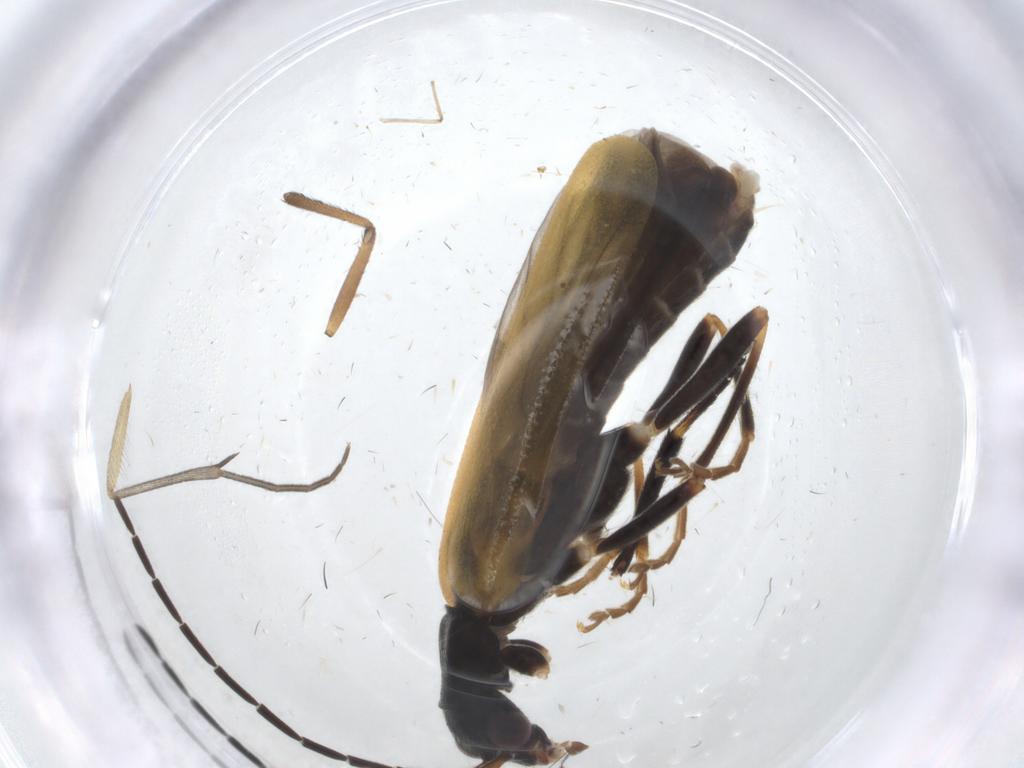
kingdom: Animalia
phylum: Arthropoda
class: Insecta
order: Coleoptera
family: Cantharidae
